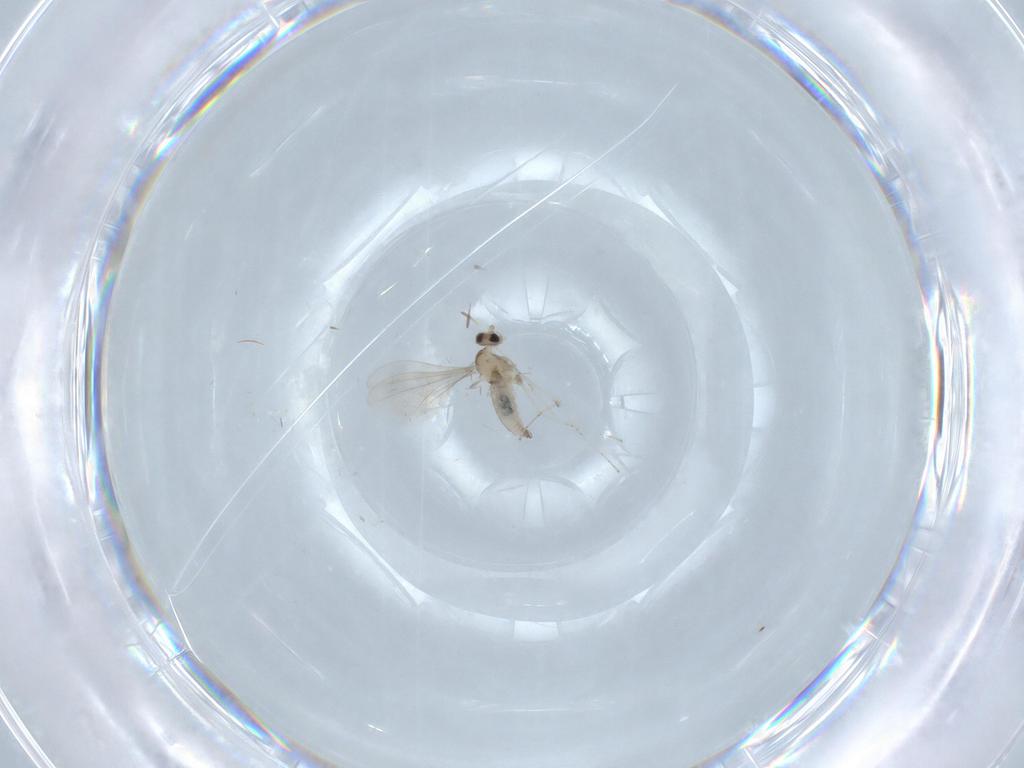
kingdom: Animalia
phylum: Arthropoda
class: Insecta
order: Diptera
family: Cecidomyiidae
